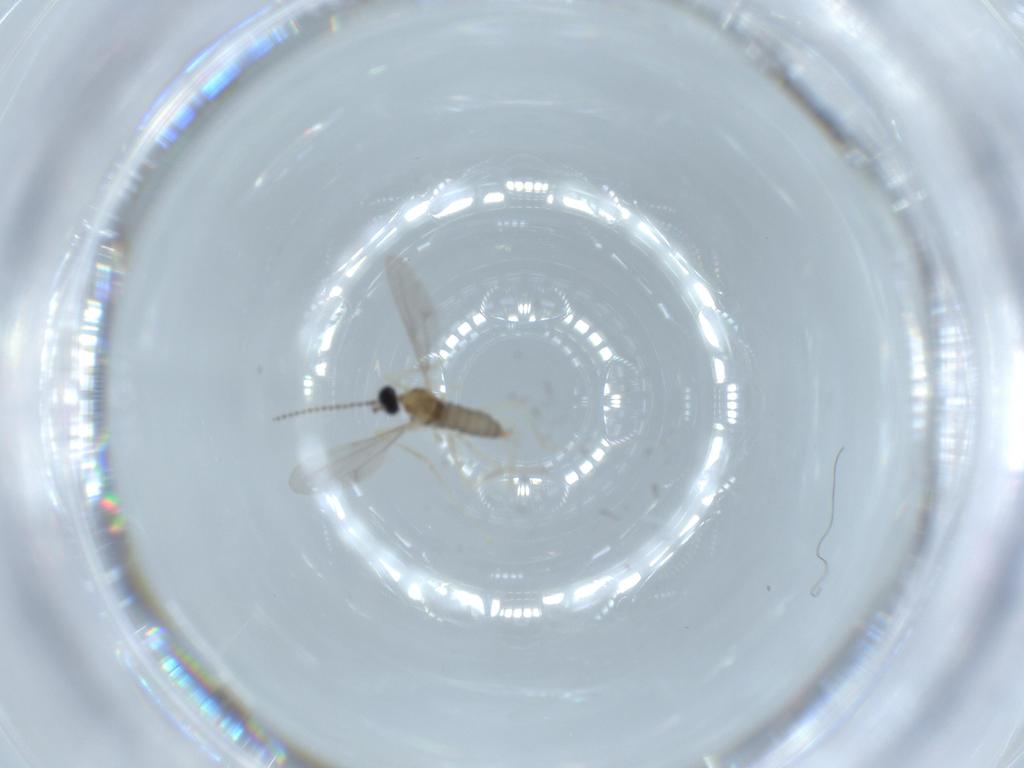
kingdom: Animalia
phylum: Arthropoda
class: Insecta
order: Diptera
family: Cecidomyiidae
